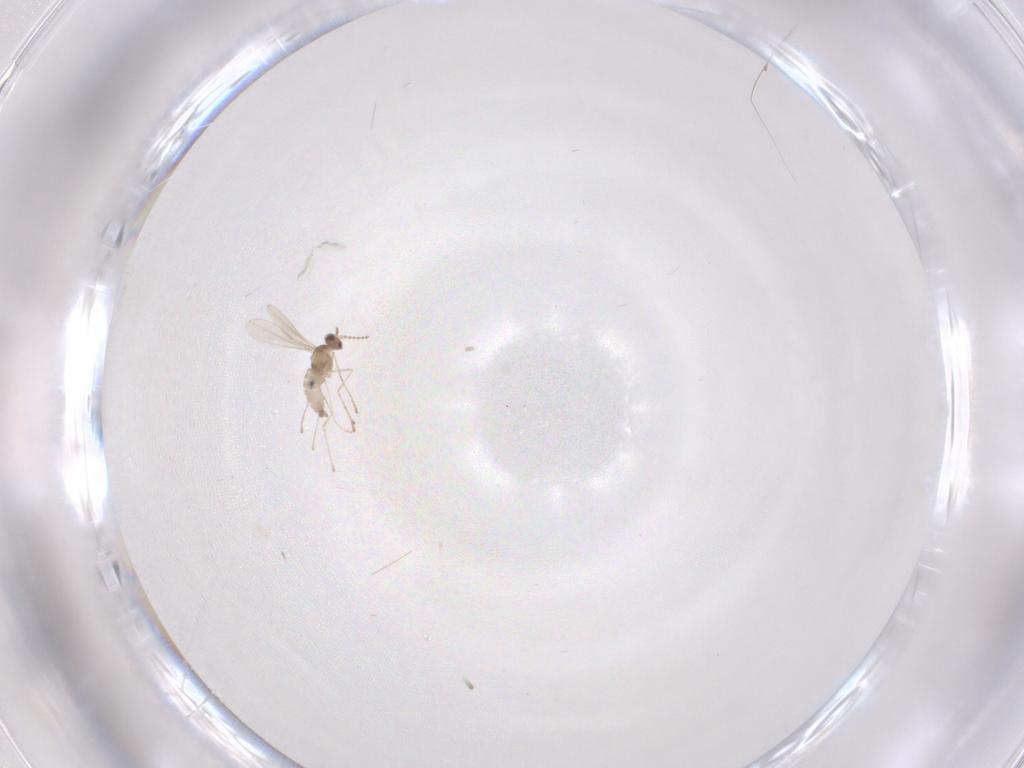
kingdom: Animalia
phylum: Arthropoda
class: Insecta
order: Diptera
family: Cecidomyiidae
